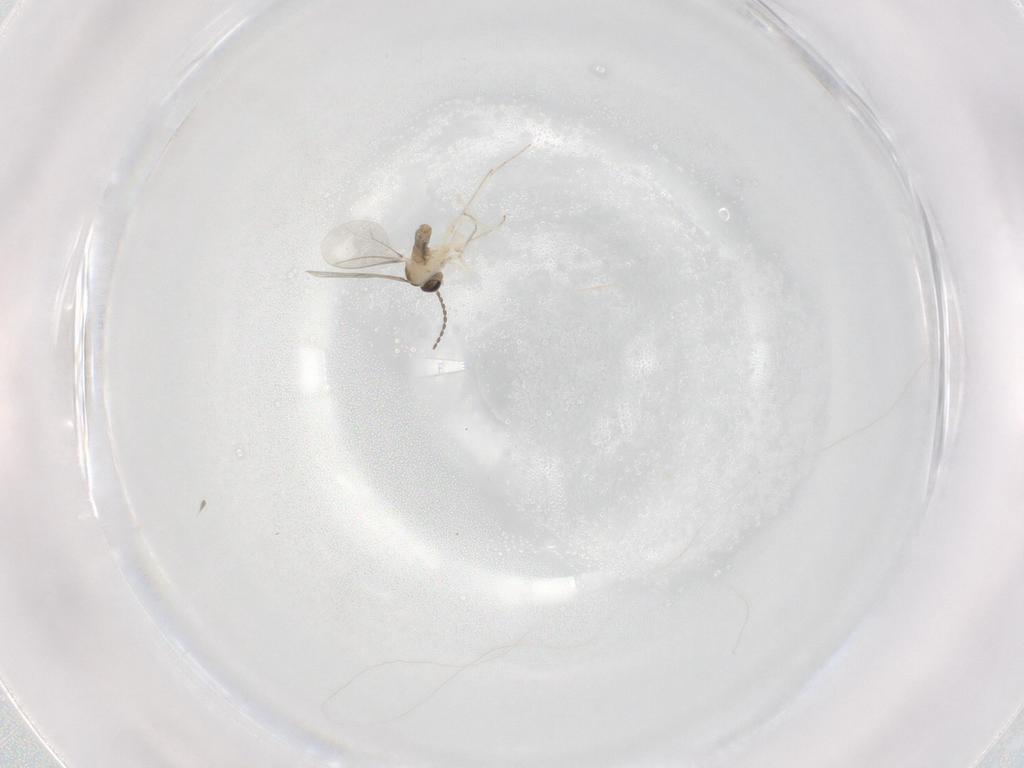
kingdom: Animalia
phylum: Arthropoda
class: Insecta
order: Diptera
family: Cecidomyiidae
